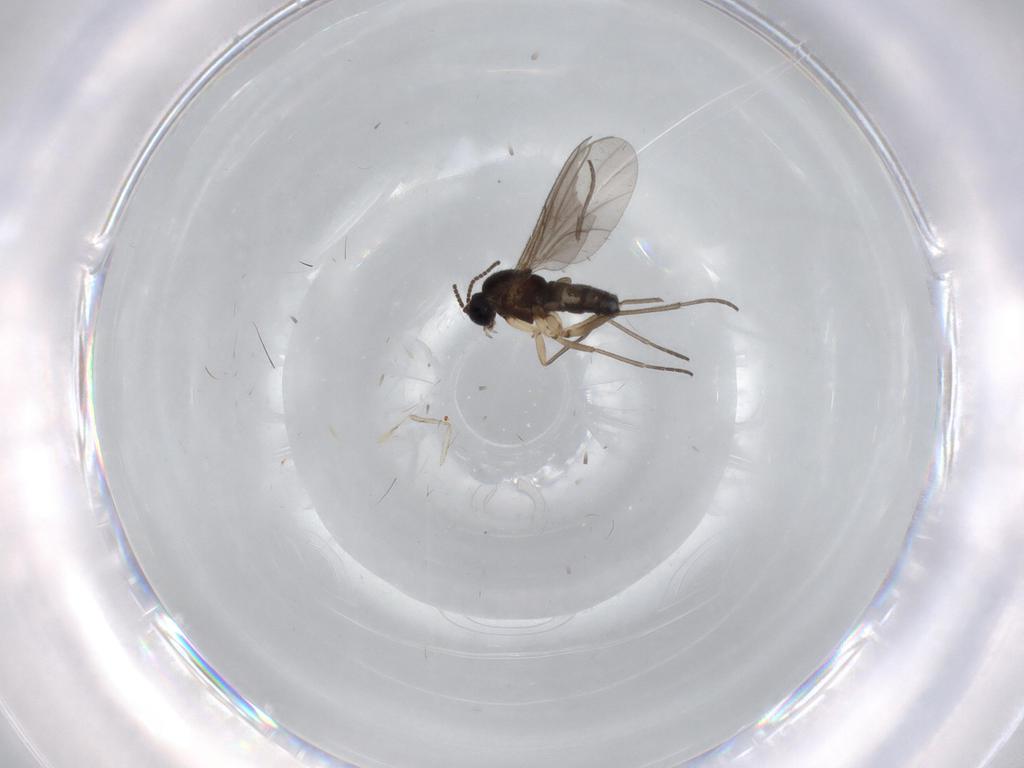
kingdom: Animalia
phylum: Arthropoda
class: Insecta
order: Diptera
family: Sciaridae
